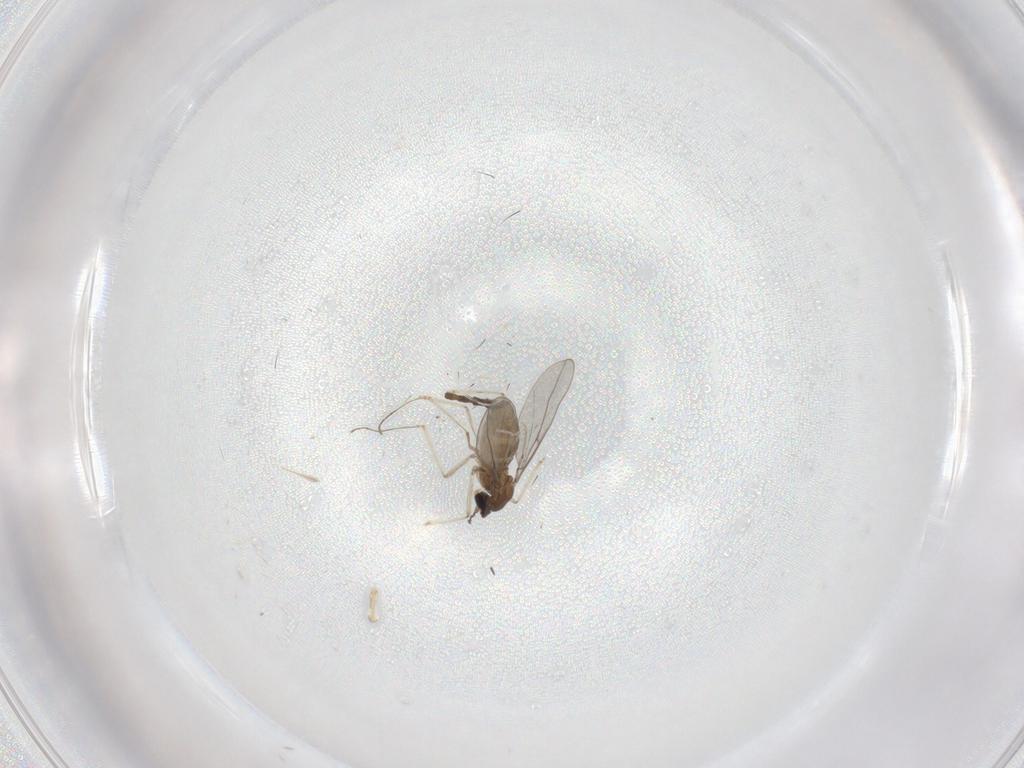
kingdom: Animalia
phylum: Arthropoda
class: Insecta
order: Diptera
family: Cecidomyiidae
